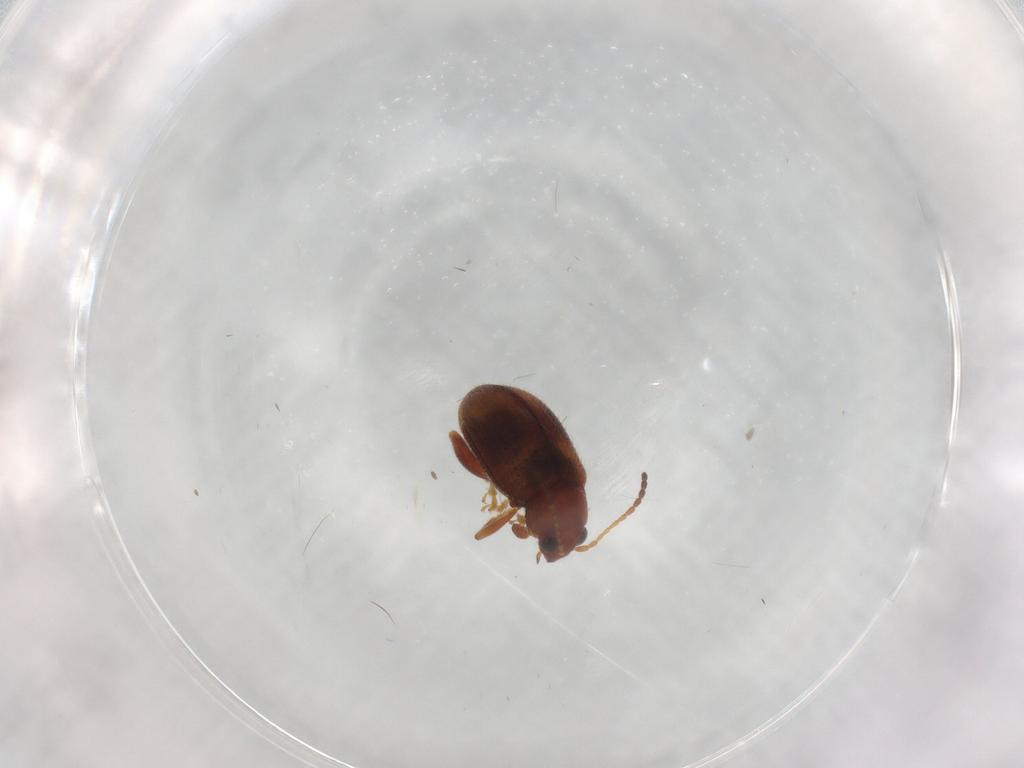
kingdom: Animalia
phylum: Arthropoda
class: Insecta
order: Coleoptera
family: Chrysomelidae
